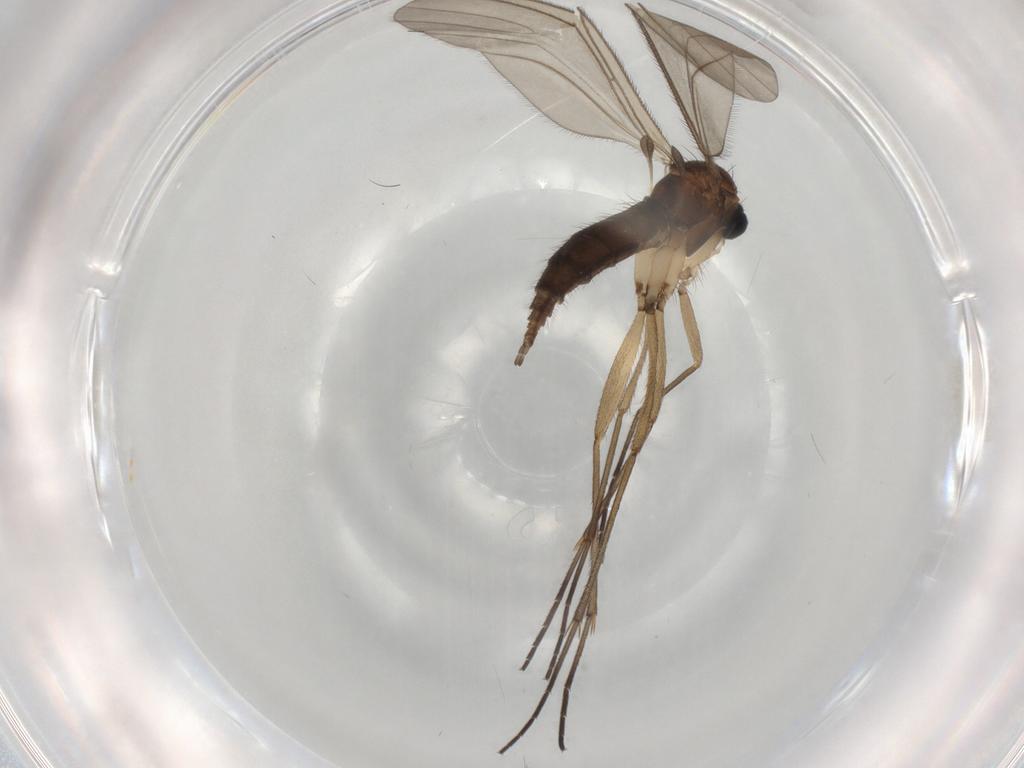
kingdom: Animalia
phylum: Arthropoda
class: Insecta
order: Diptera
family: Sciaridae
